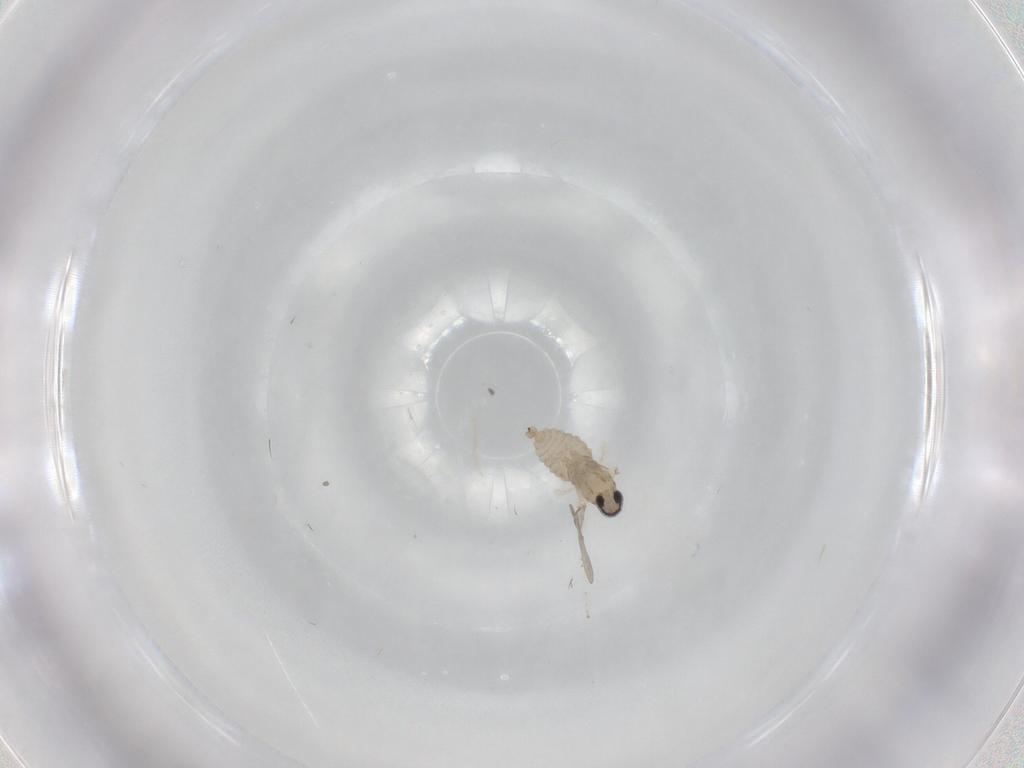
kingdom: Animalia
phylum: Arthropoda
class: Insecta
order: Diptera
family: Cecidomyiidae
